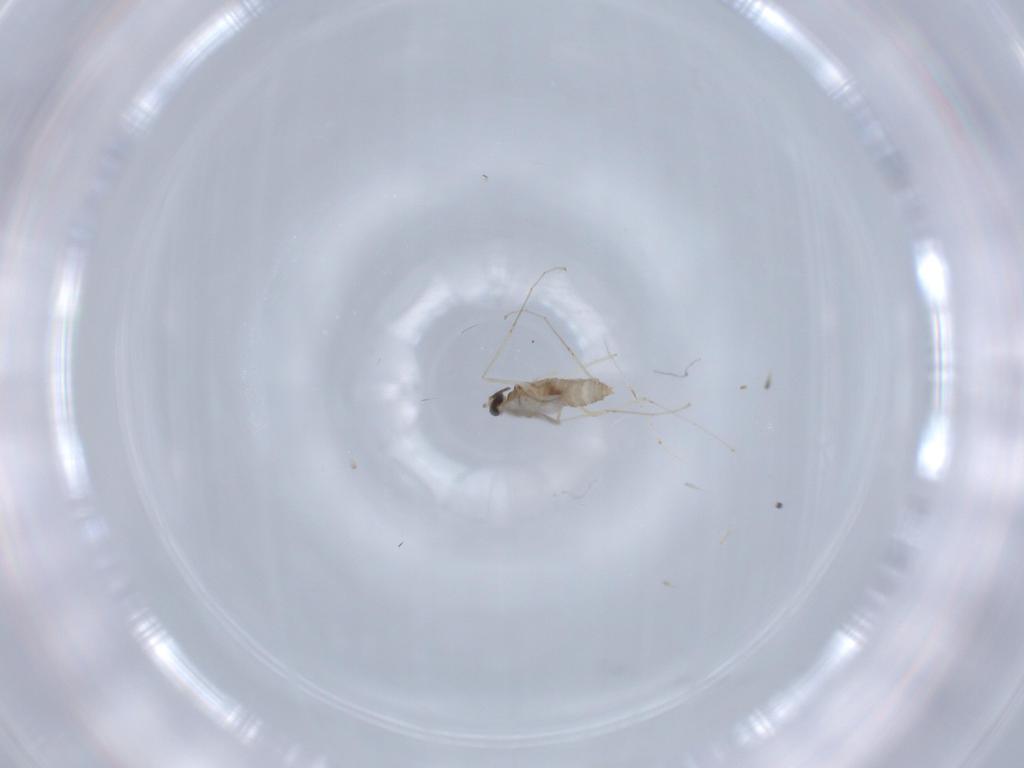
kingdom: Animalia
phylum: Arthropoda
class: Insecta
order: Diptera
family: Cecidomyiidae
